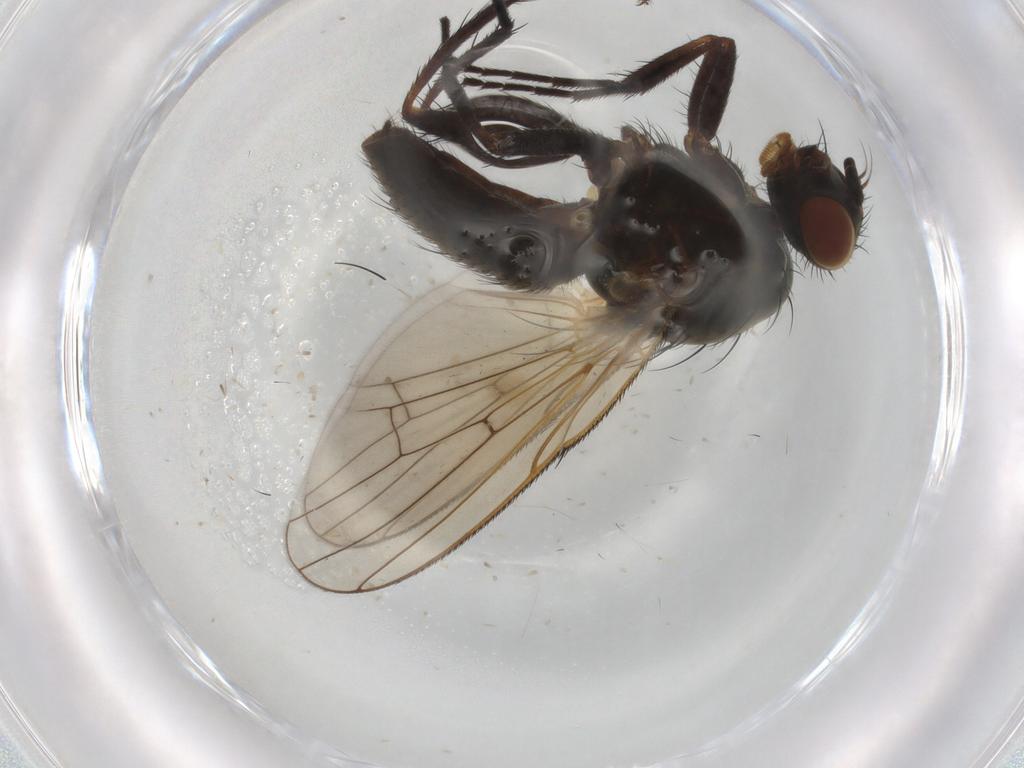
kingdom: Animalia
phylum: Arthropoda
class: Insecta
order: Diptera
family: Anthomyiidae
